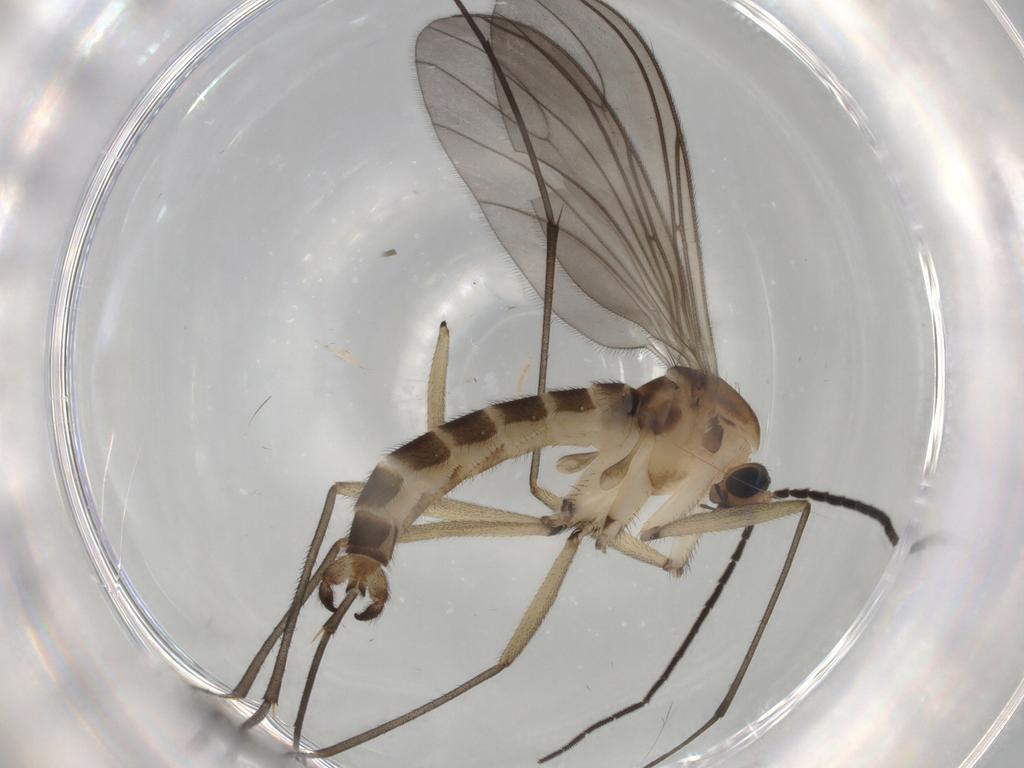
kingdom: Animalia
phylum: Arthropoda
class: Insecta
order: Diptera
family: Sciaridae
